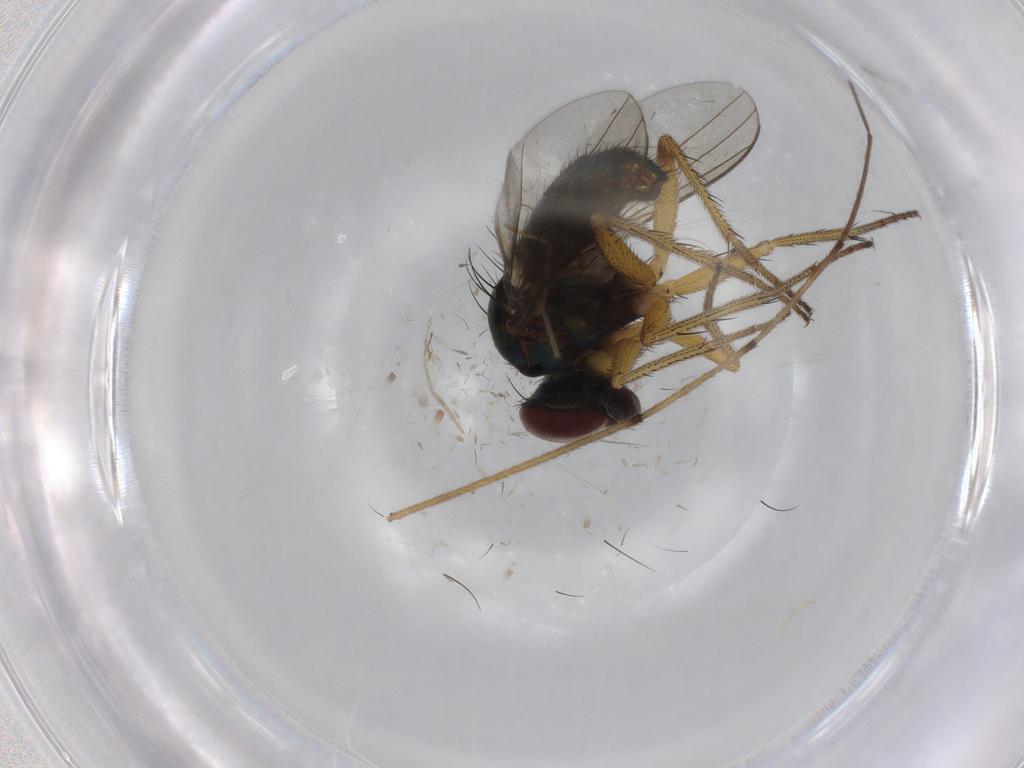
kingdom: Animalia
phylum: Arthropoda
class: Insecta
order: Diptera
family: Dolichopodidae
